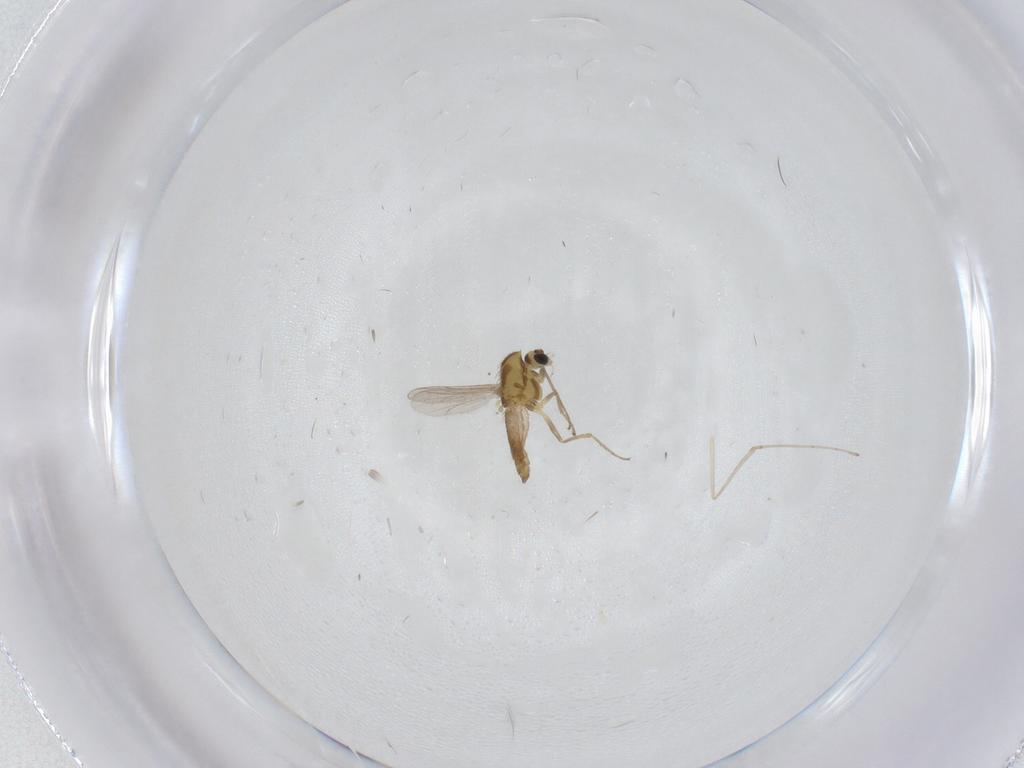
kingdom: Animalia
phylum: Arthropoda
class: Insecta
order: Diptera
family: Chironomidae
